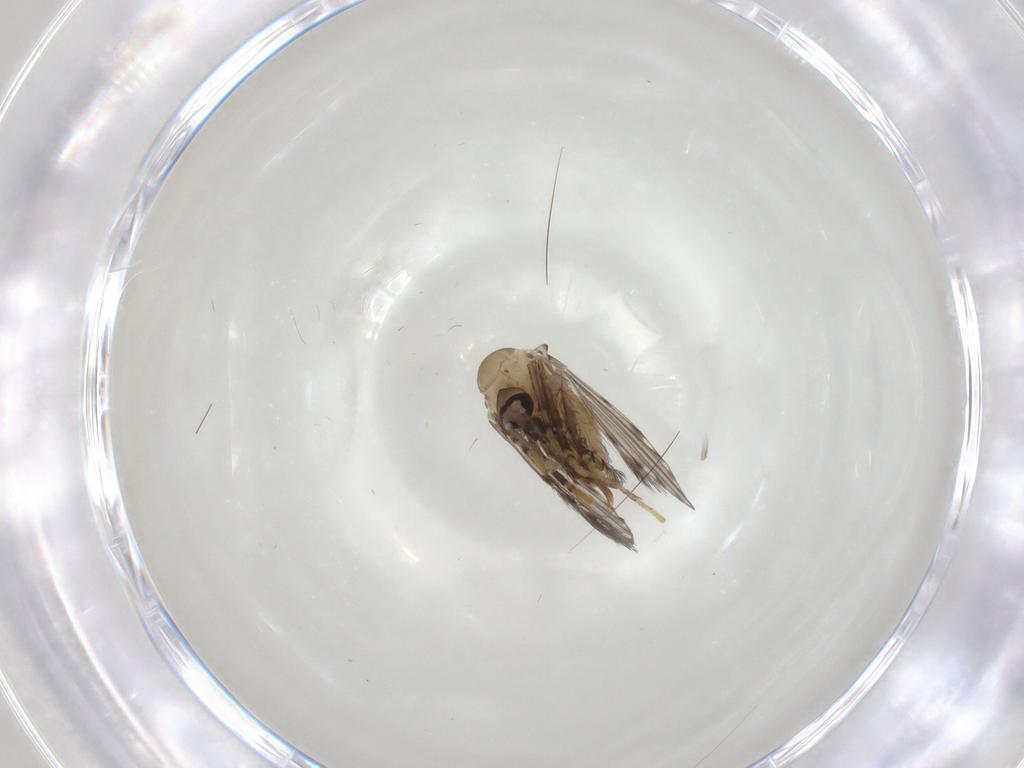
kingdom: Animalia
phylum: Arthropoda
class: Insecta
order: Diptera
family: Psychodidae
